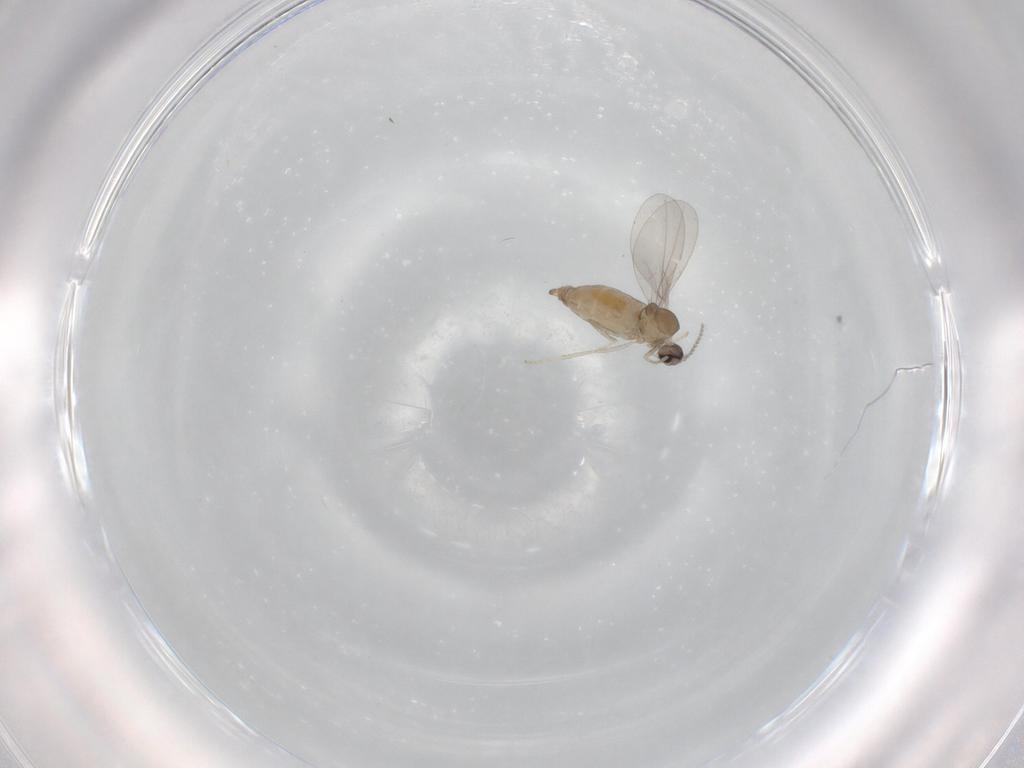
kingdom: Animalia
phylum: Arthropoda
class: Insecta
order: Diptera
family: Cecidomyiidae
